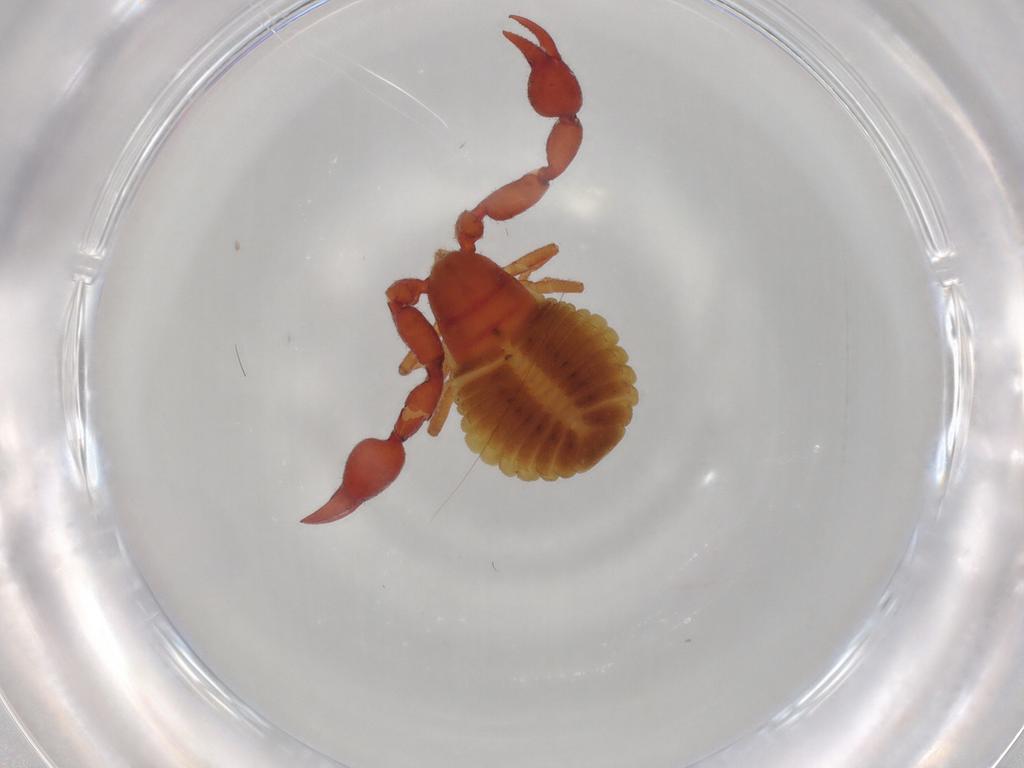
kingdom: Animalia
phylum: Arthropoda
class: Arachnida
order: Pseudoscorpiones
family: Chernetidae
